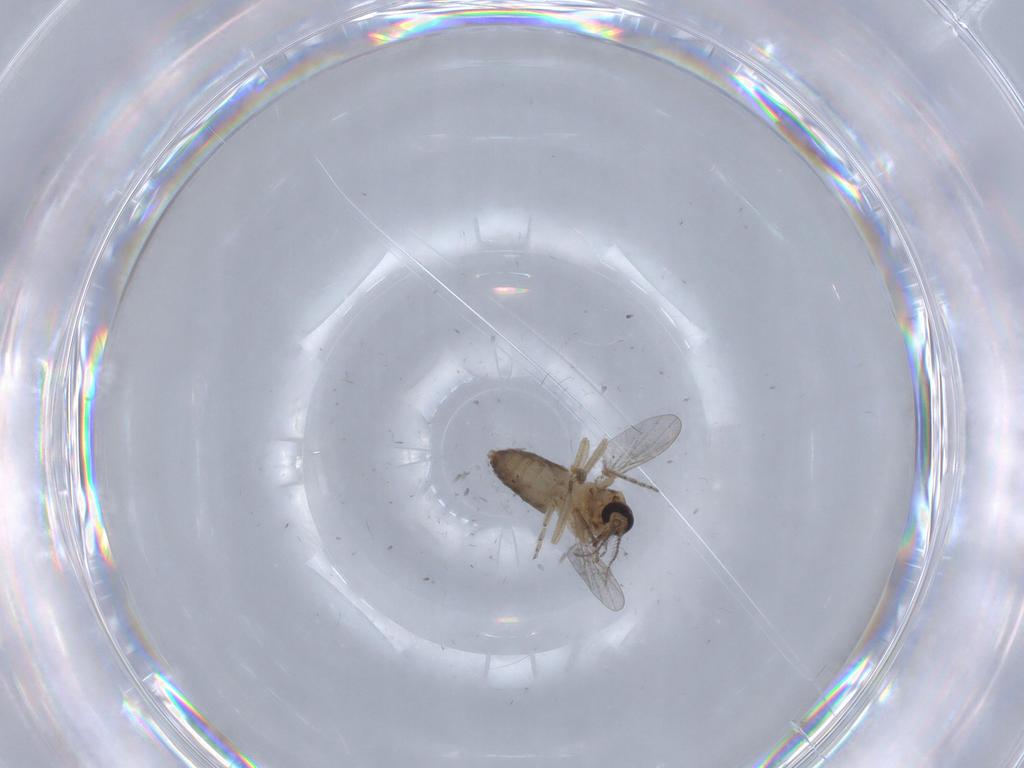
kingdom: Animalia
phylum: Arthropoda
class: Insecta
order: Diptera
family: Ceratopogonidae
